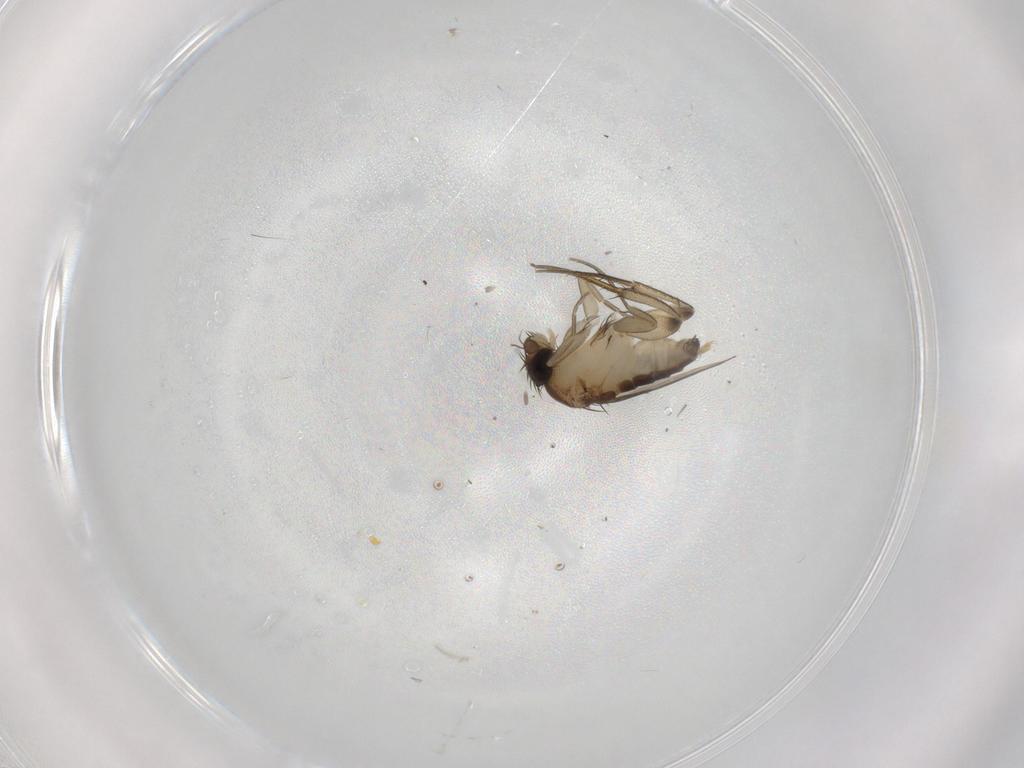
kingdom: Animalia
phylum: Arthropoda
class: Insecta
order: Diptera
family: Phoridae
